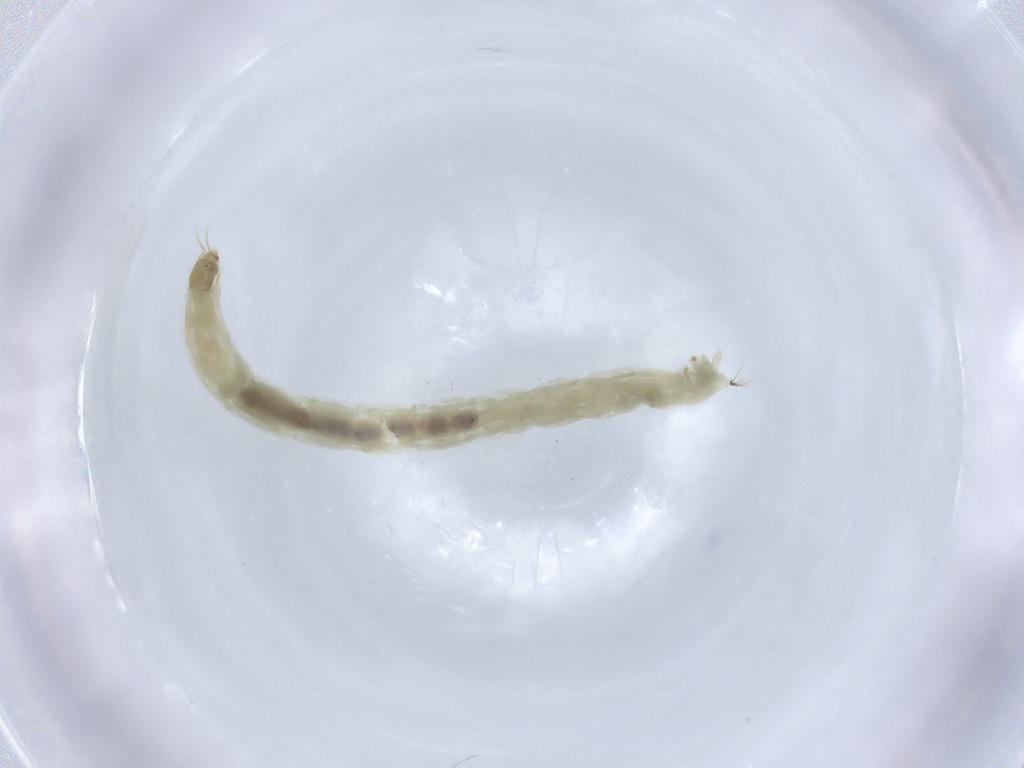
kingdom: Animalia
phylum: Arthropoda
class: Insecta
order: Diptera
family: Chironomidae
